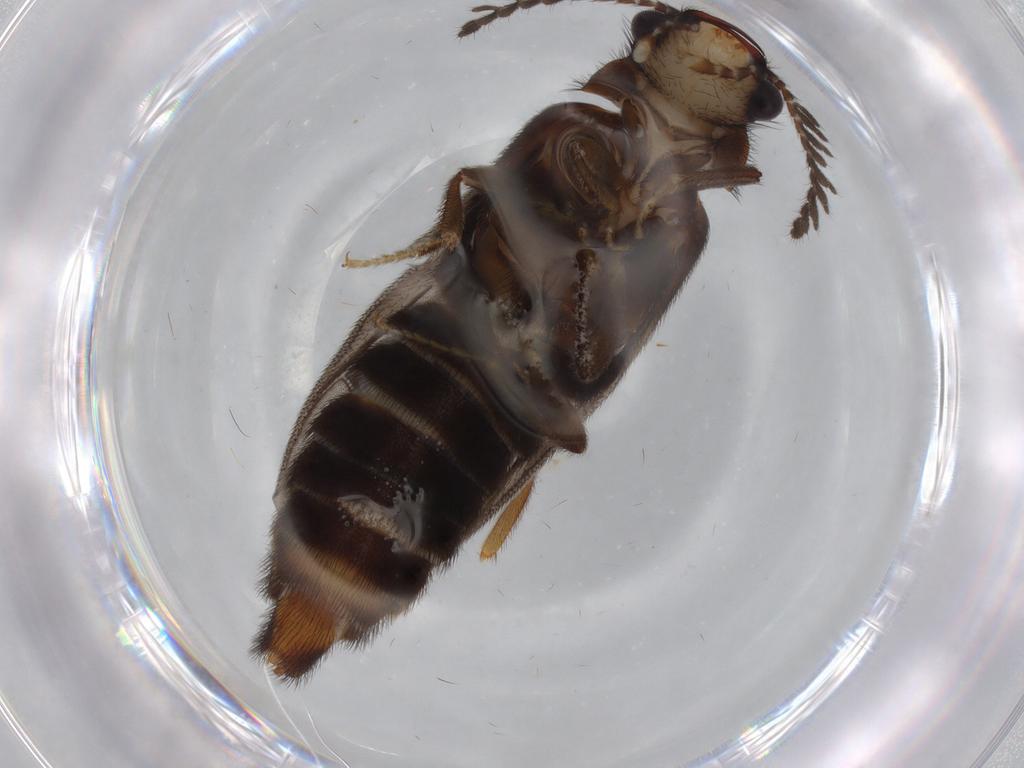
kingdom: Animalia
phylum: Arthropoda
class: Insecta
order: Coleoptera
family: Phengodidae
